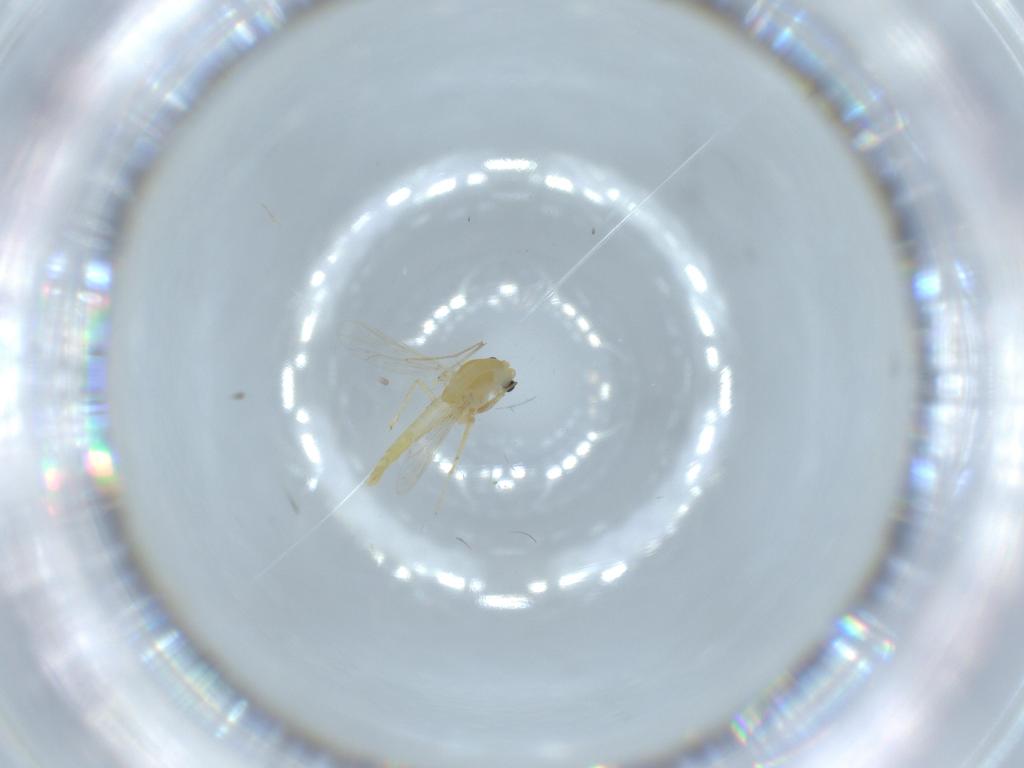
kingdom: Animalia
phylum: Arthropoda
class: Insecta
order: Diptera
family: Chironomidae
